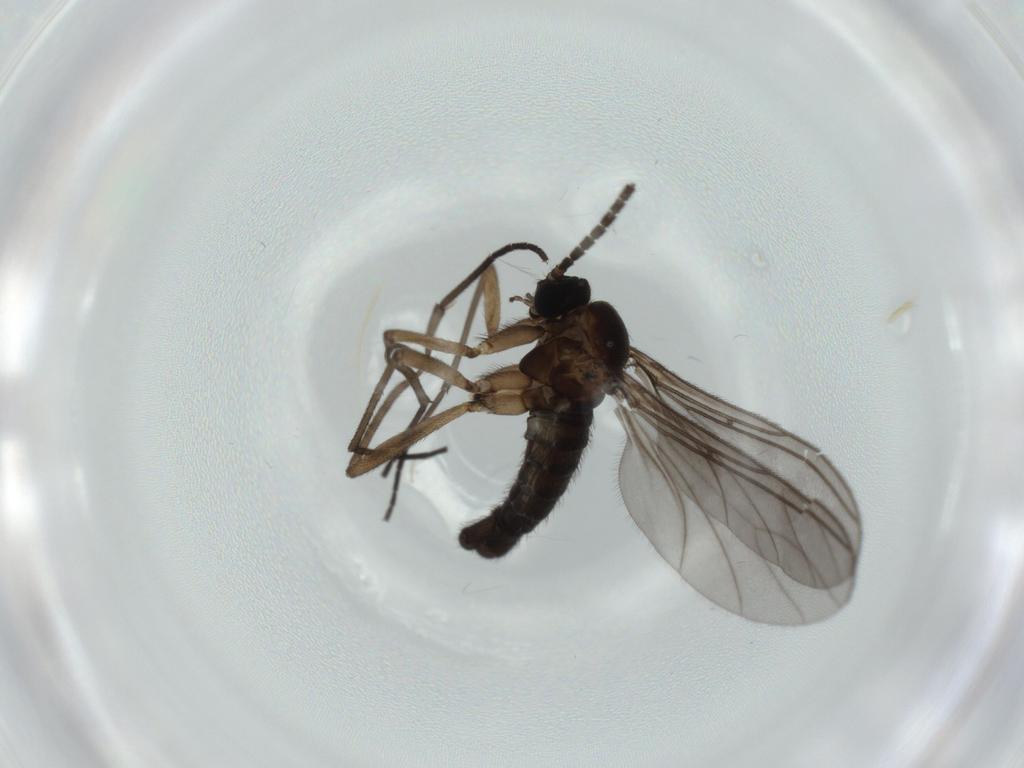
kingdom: Animalia
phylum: Arthropoda
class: Insecta
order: Diptera
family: Sciaridae
